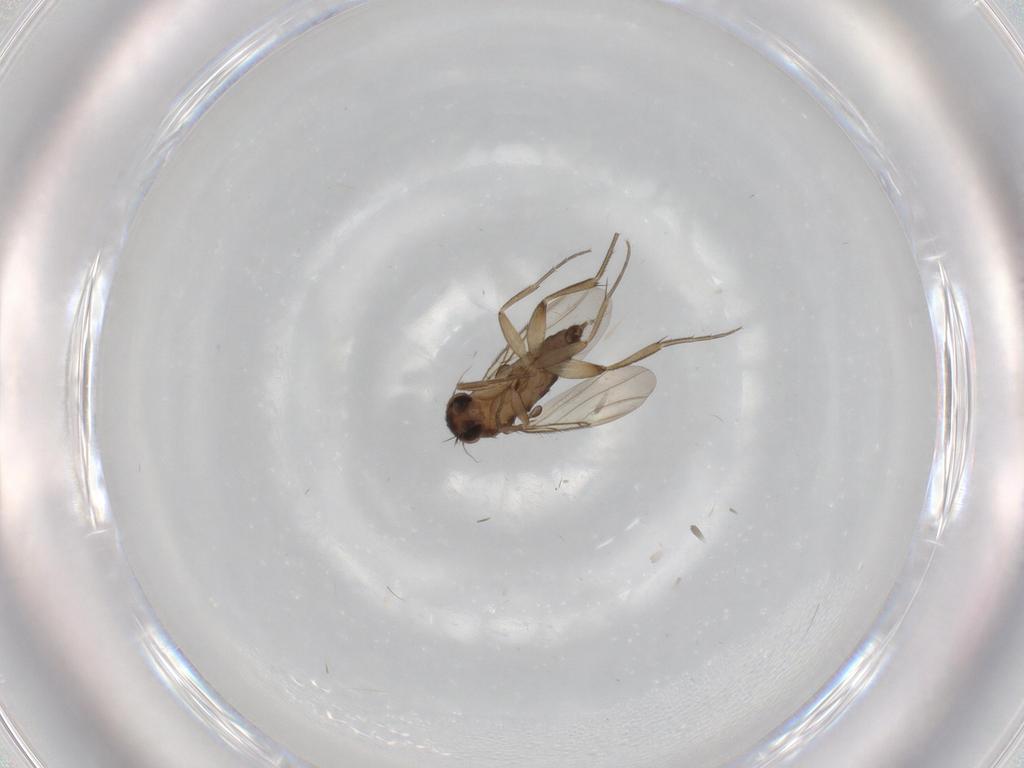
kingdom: Animalia
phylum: Arthropoda
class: Insecta
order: Diptera
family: Phoridae
